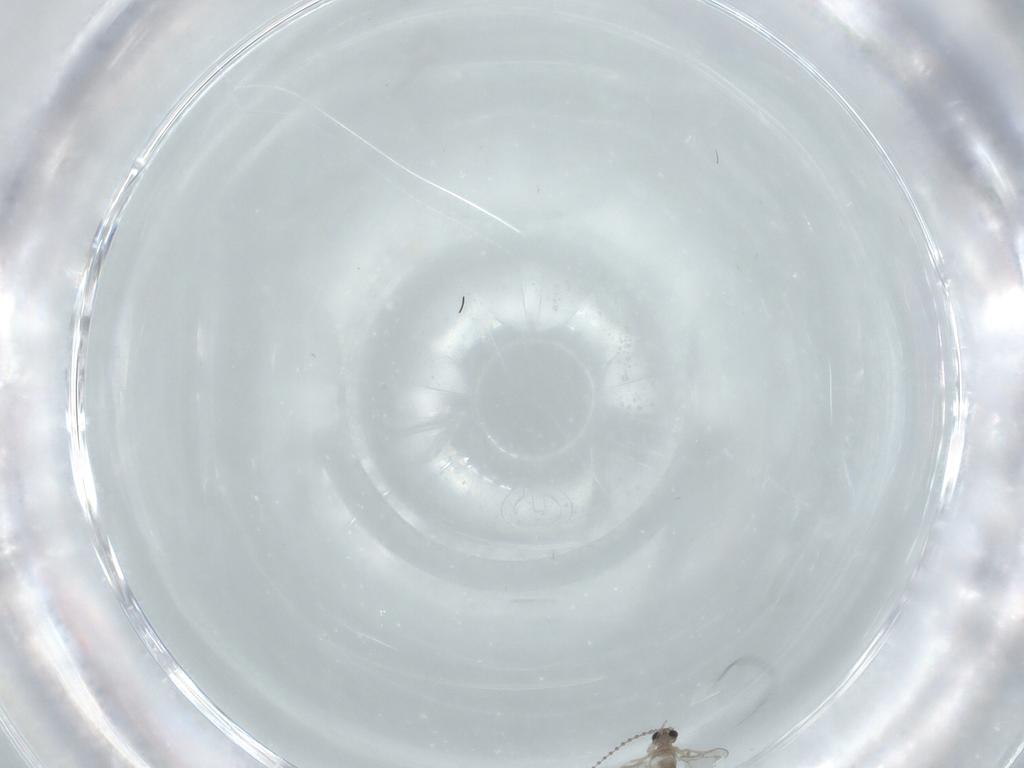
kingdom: Animalia
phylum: Arthropoda
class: Insecta
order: Diptera
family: Cecidomyiidae
